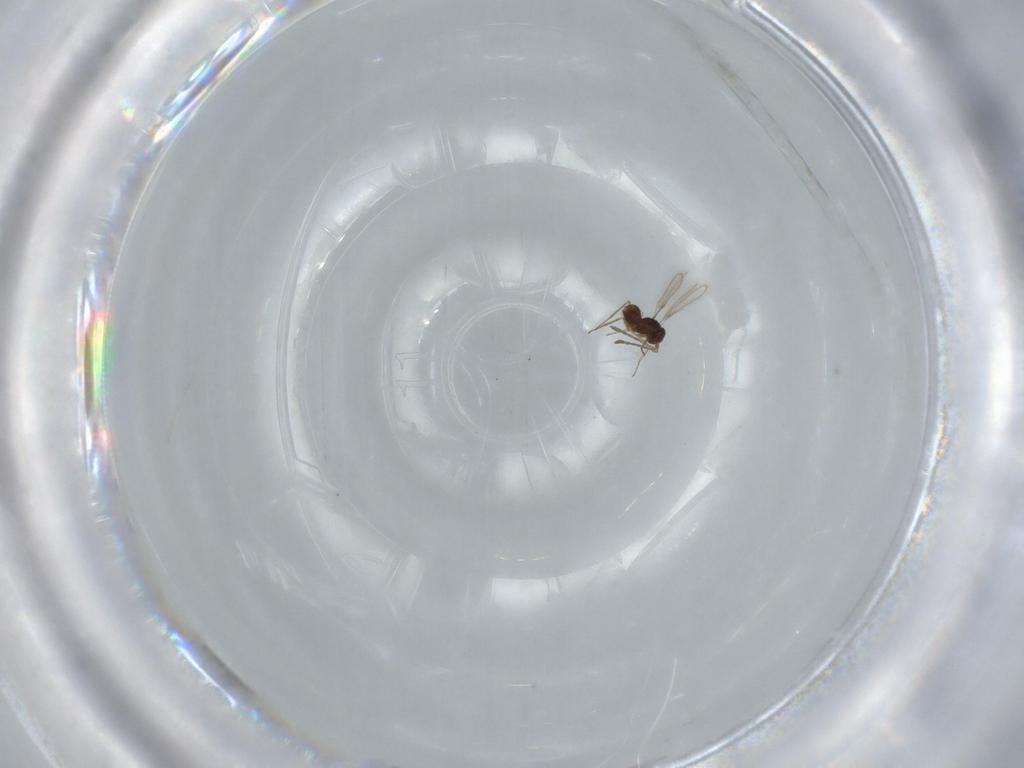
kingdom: Animalia
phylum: Arthropoda
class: Insecta
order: Hymenoptera
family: Mymaridae
